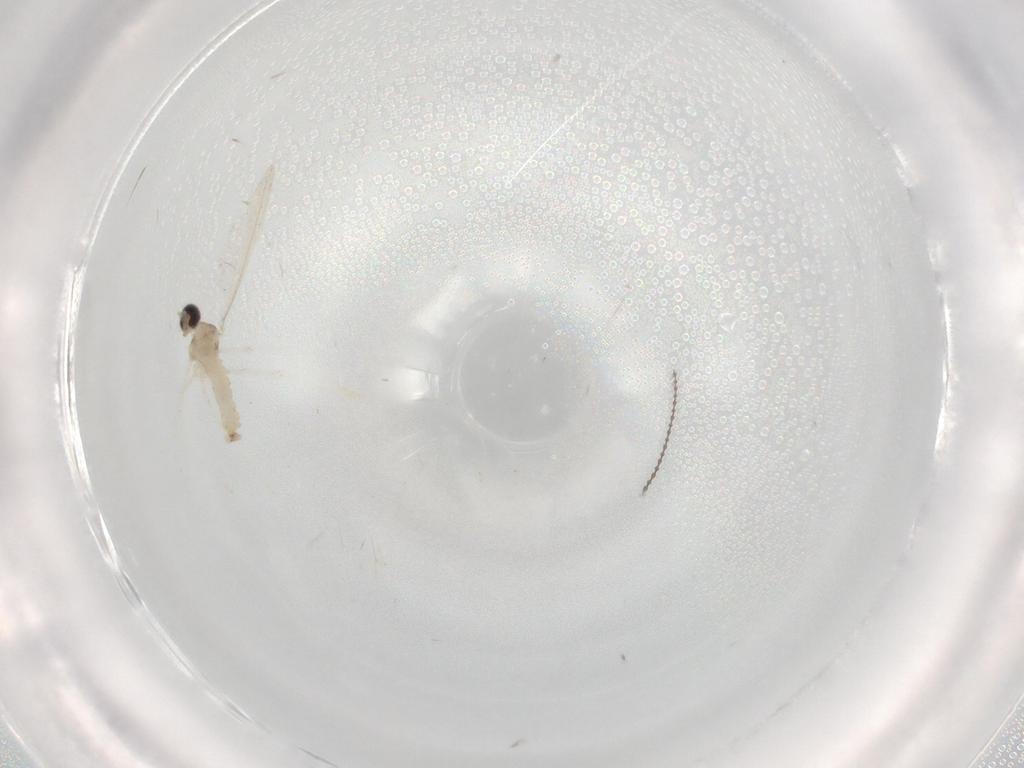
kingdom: Animalia
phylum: Arthropoda
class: Insecta
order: Diptera
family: Cecidomyiidae
